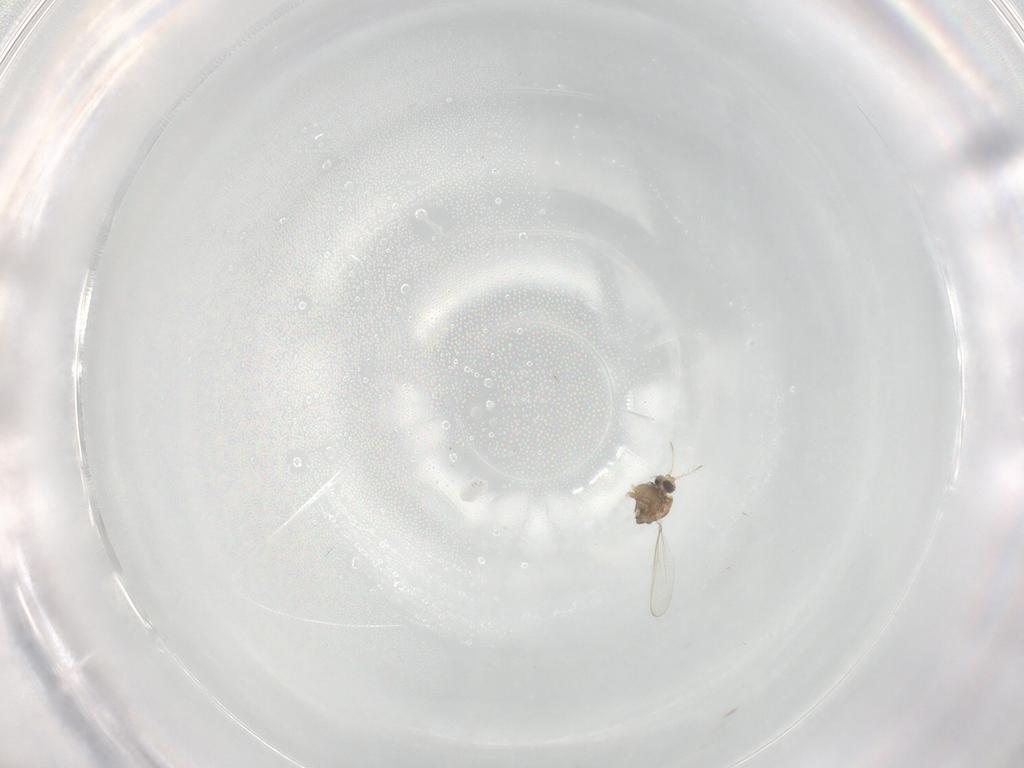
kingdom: Animalia
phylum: Arthropoda
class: Insecta
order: Diptera
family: Chironomidae
